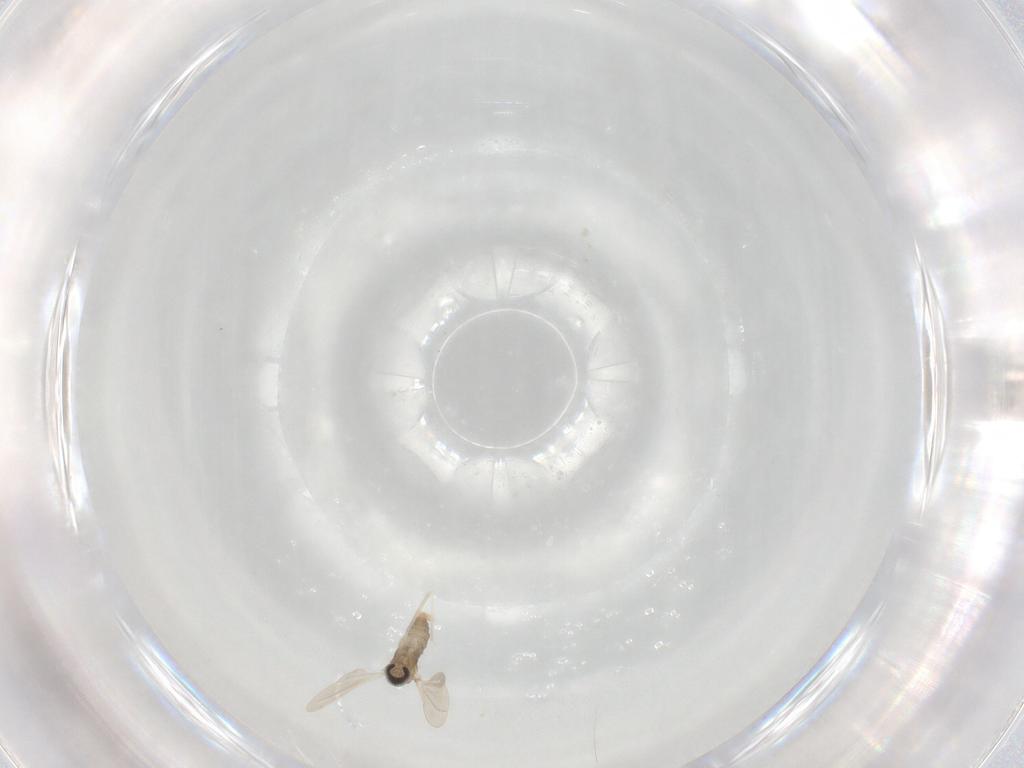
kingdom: Animalia
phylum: Arthropoda
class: Insecta
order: Diptera
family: Cecidomyiidae
